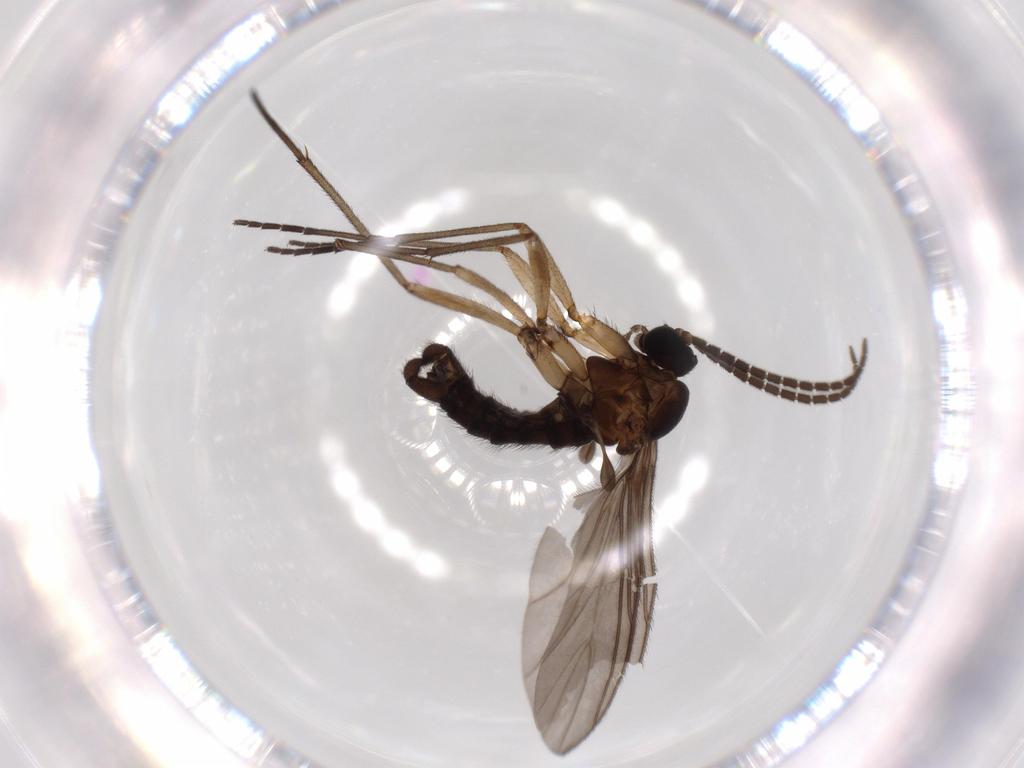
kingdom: Animalia
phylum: Arthropoda
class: Insecta
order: Diptera
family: Sciaridae
